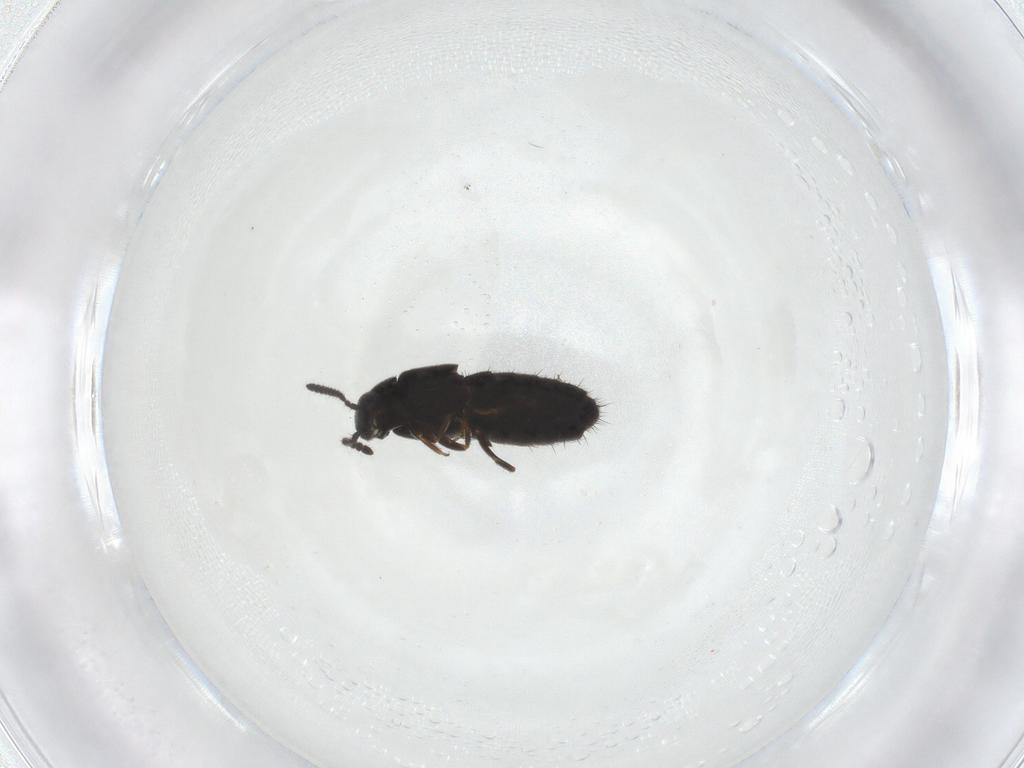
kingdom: Animalia
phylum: Arthropoda
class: Insecta
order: Coleoptera
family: Staphylinidae
